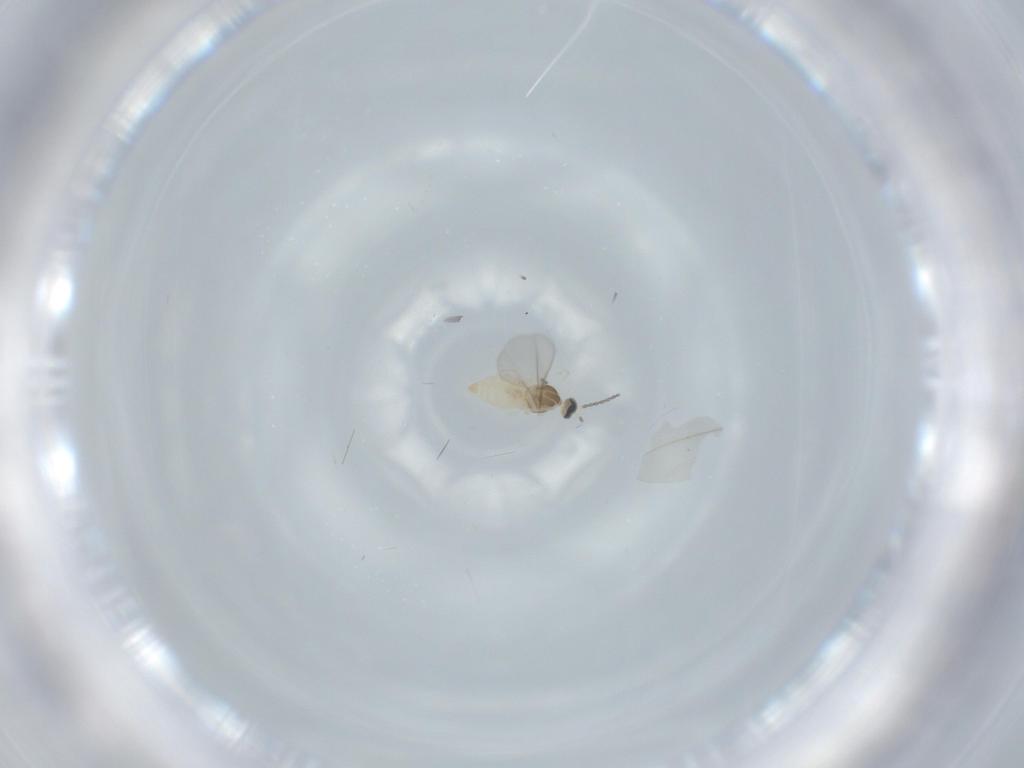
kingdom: Animalia
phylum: Arthropoda
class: Insecta
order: Diptera
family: Cecidomyiidae
